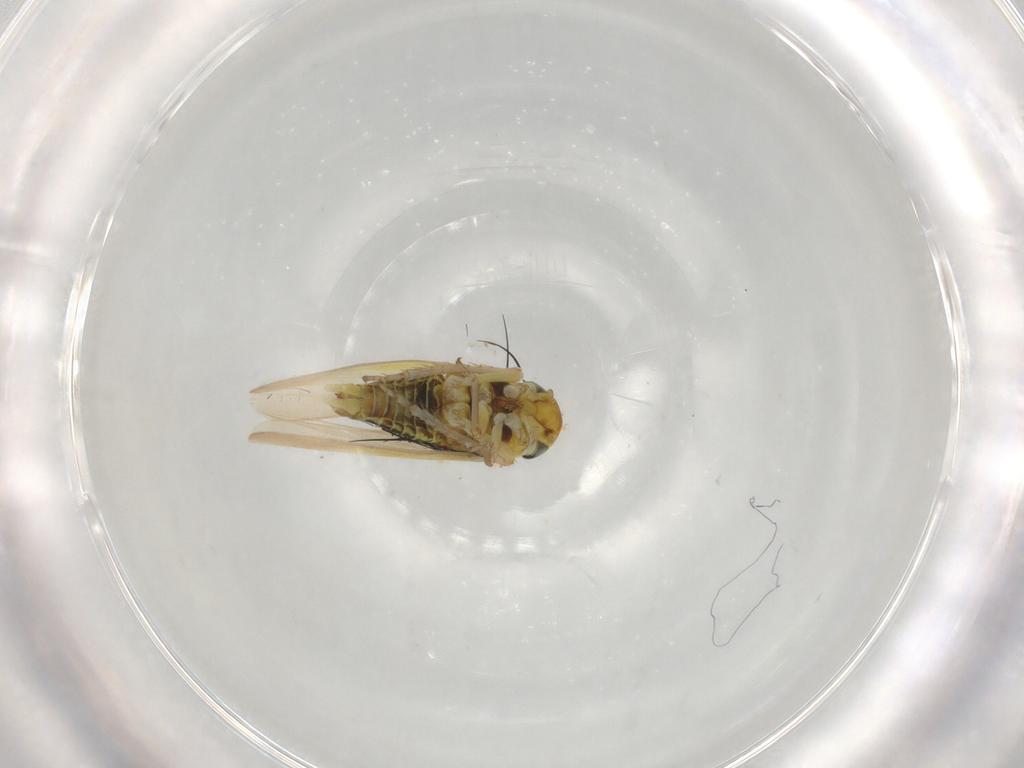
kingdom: Animalia
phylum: Arthropoda
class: Insecta
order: Hemiptera
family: Cicadellidae
